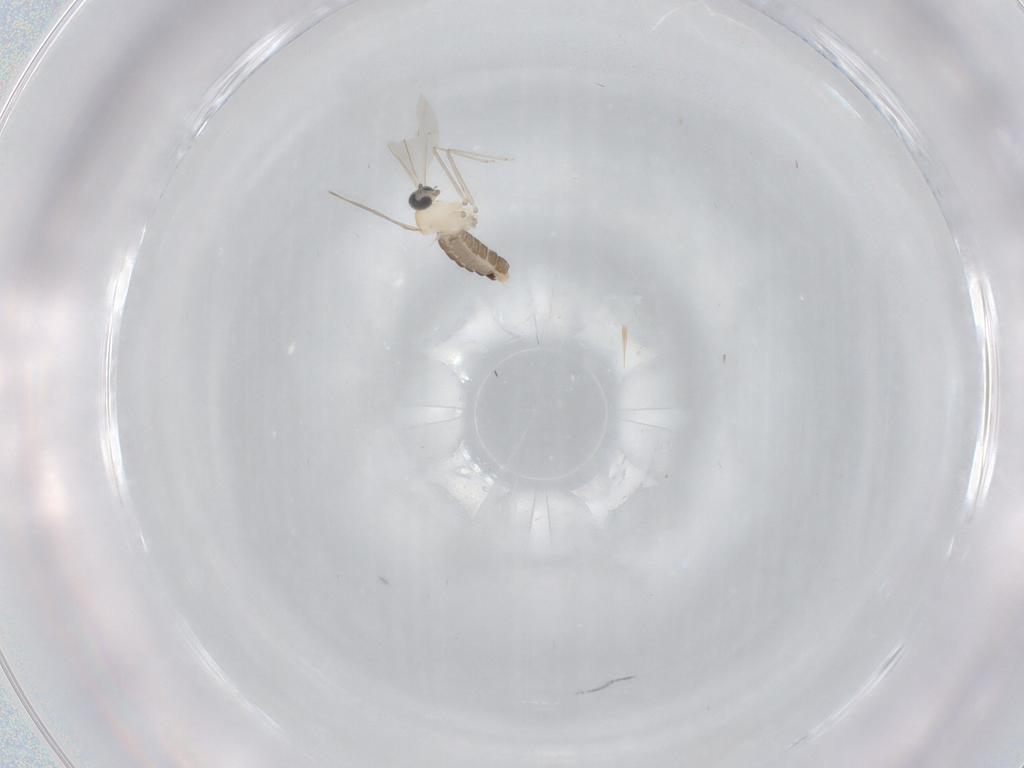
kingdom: Animalia
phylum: Arthropoda
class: Insecta
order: Diptera
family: Cecidomyiidae
